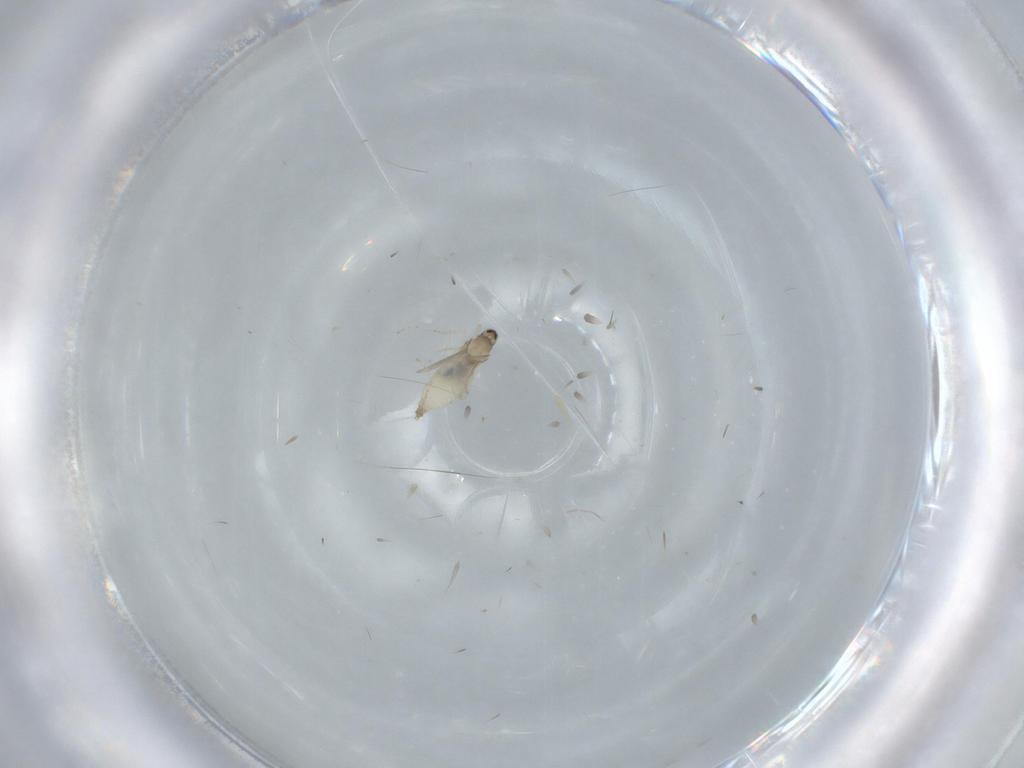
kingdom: Animalia
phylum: Arthropoda
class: Insecta
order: Diptera
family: Cecidomyiidae
